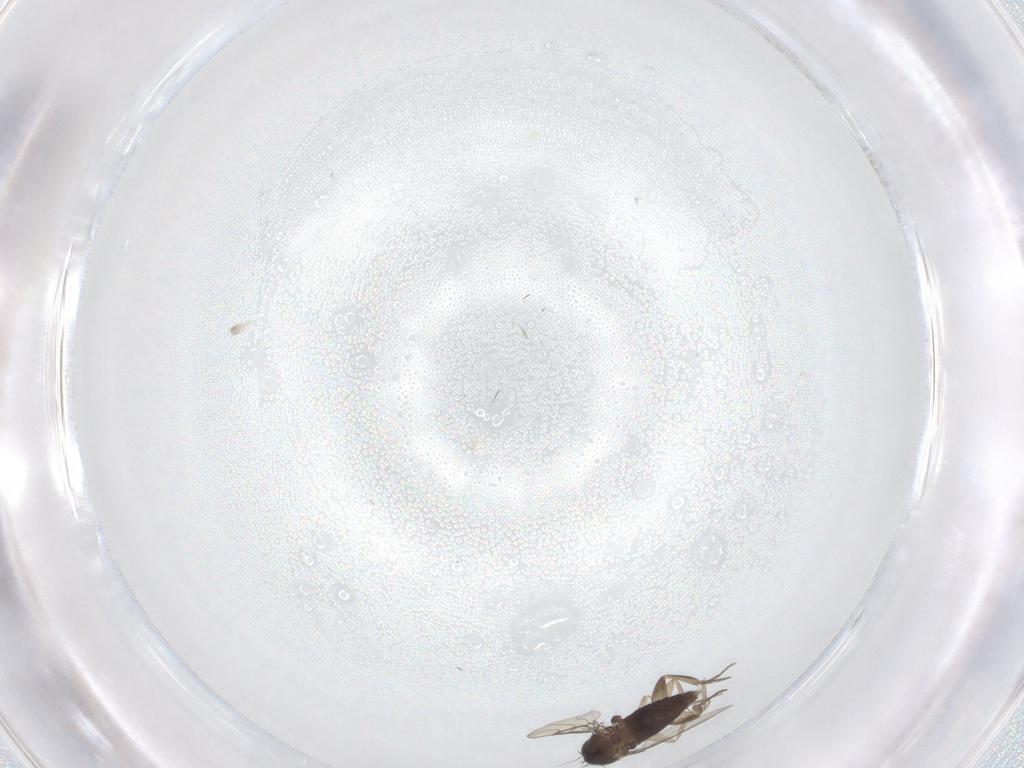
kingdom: Animalia
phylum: Arthropoda
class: Insecta
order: Diptera
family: Phoridae
